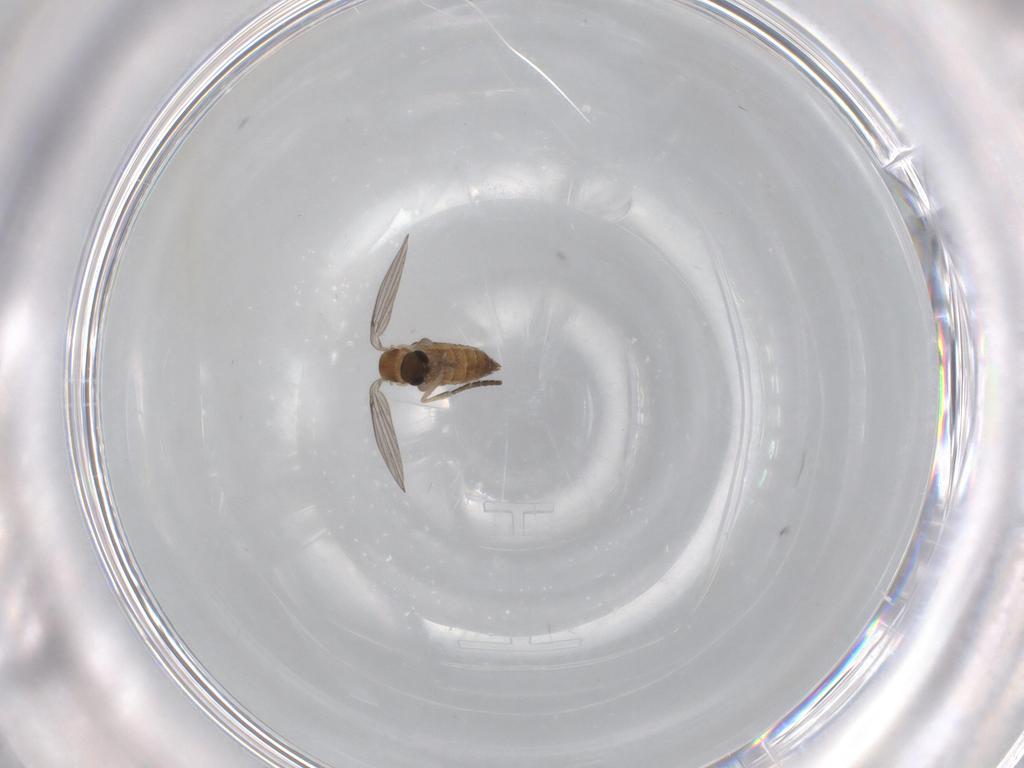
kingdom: Animalia
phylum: Arthropoda
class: Insecta
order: Diptera
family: Psychodidae
